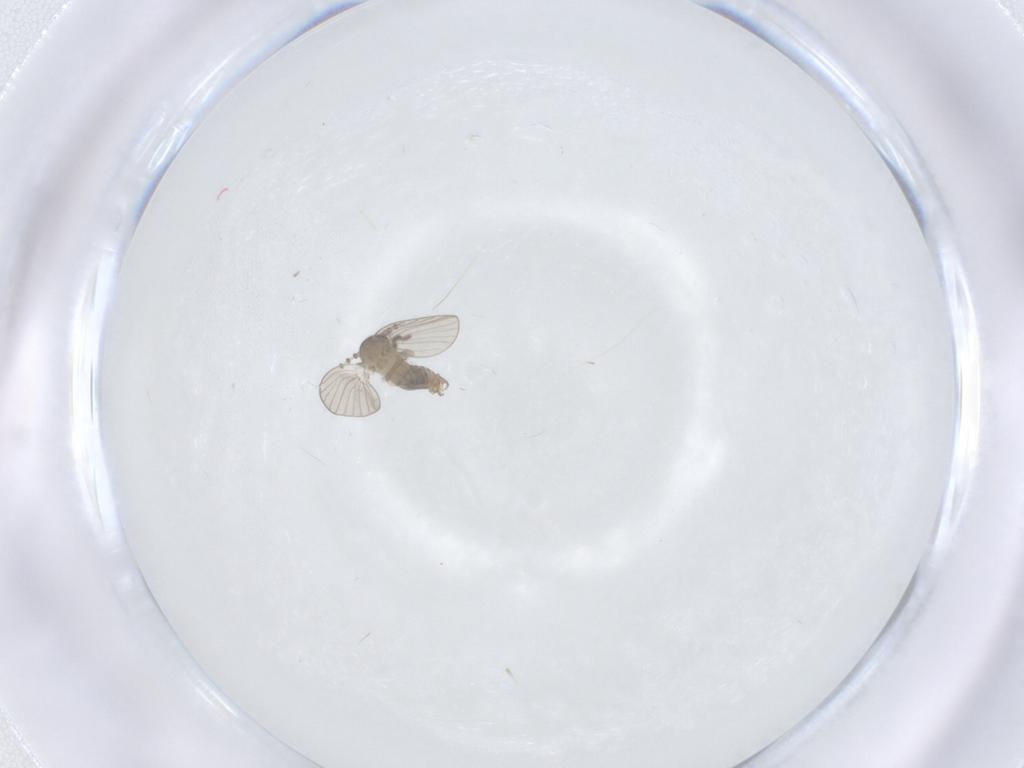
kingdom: Animalia
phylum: Arthropoda
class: Insecta
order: Diptera
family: Psychodidae
